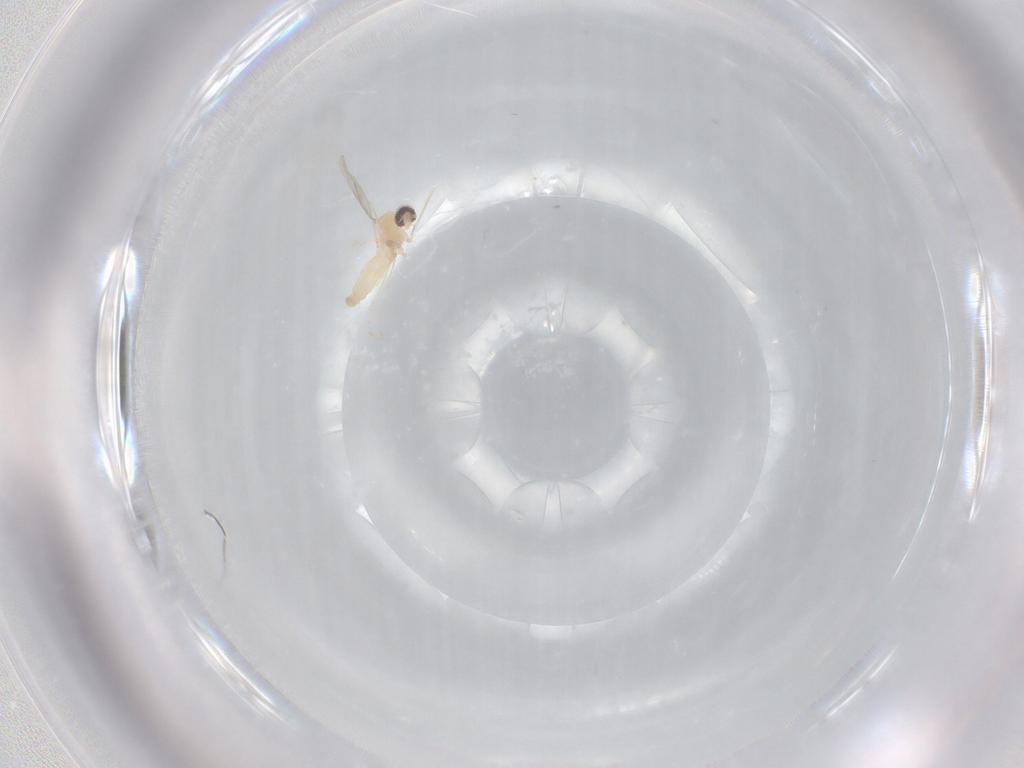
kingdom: Animalia
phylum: Arthropoda
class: Insecta
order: Diptera
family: Cecidomyiidae
